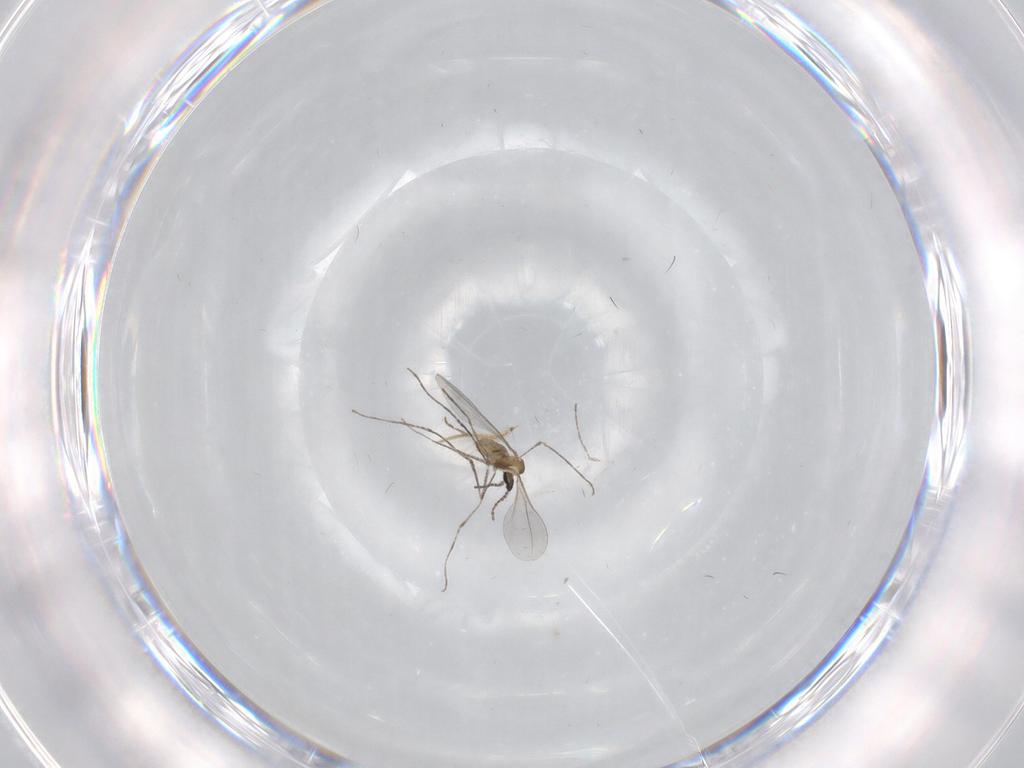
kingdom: Animalia
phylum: Arthropoda
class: Insecta
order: Diptera
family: Ceratopogonidae
